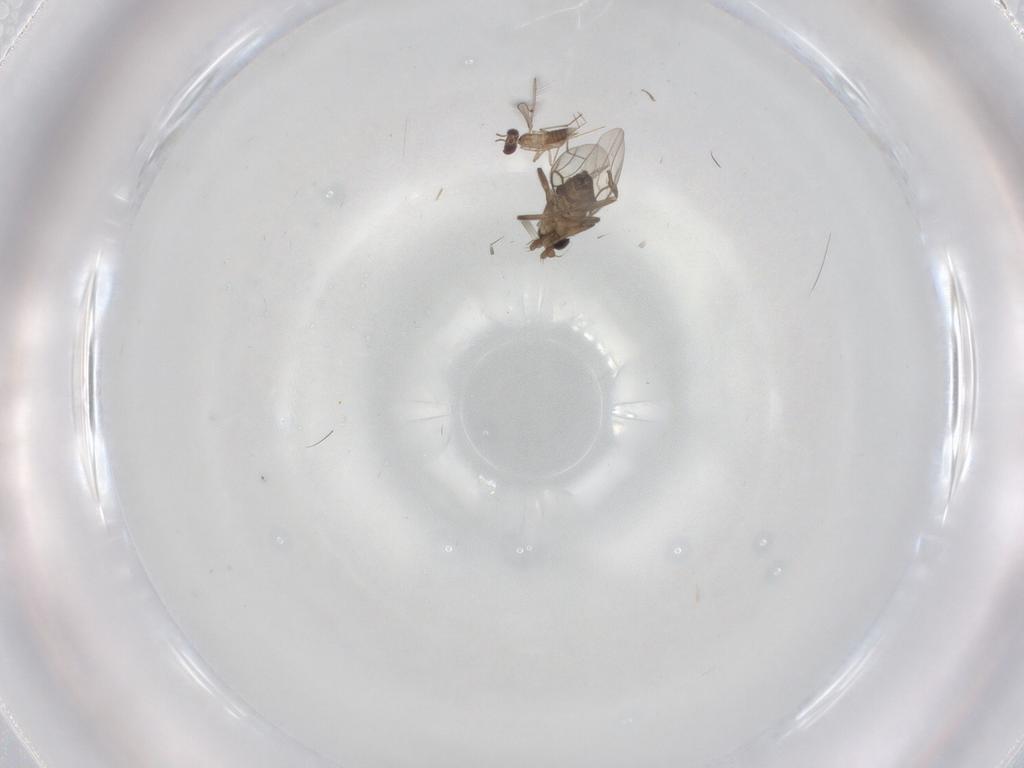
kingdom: Animalia
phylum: Arthropoda
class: Insecta
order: Diptera
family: Cecidomyiidae
